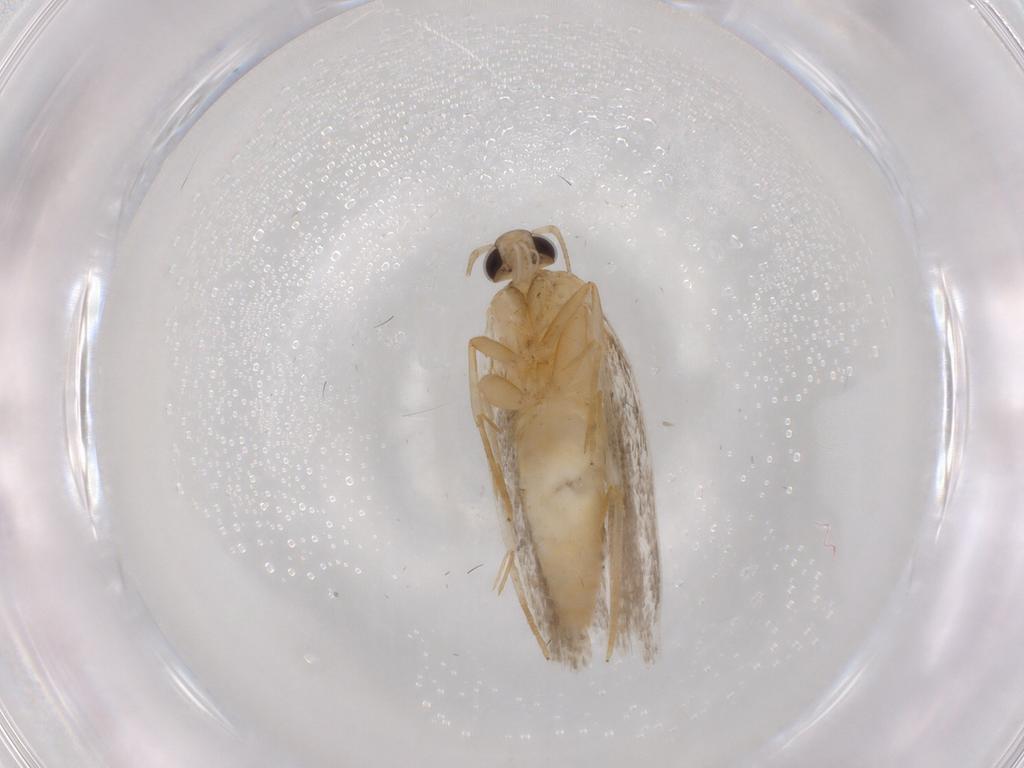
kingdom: Animalia
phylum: Arthropoda
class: Insecta
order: Lepidoptera
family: Autostichidae
